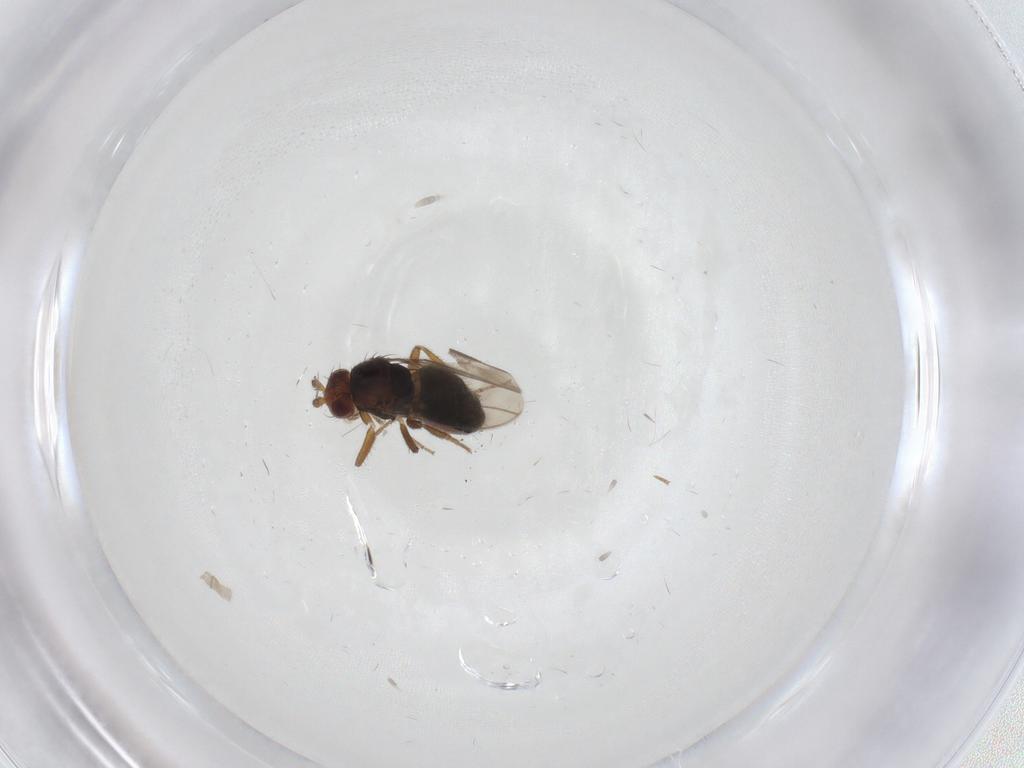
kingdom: Animalia
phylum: Arthropoda
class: Insecta
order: Diptera
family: Sphaeroceridae
